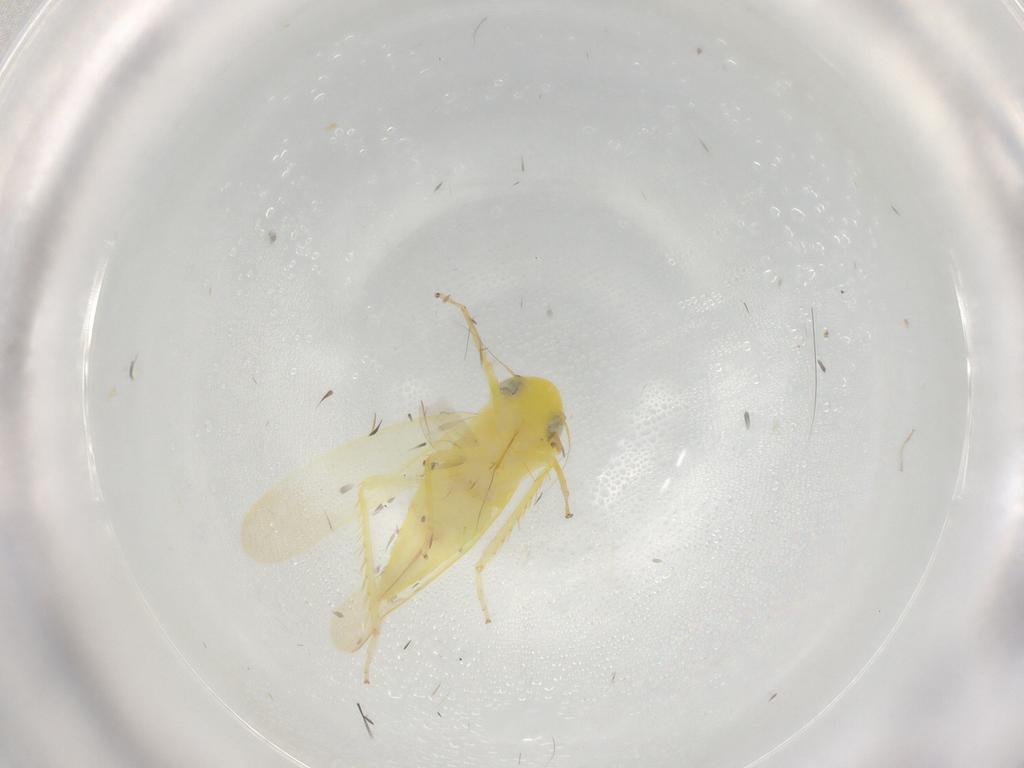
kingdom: Animalia
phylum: Arthropoda
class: Insecta
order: Hemiptera
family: Cicadellidae
